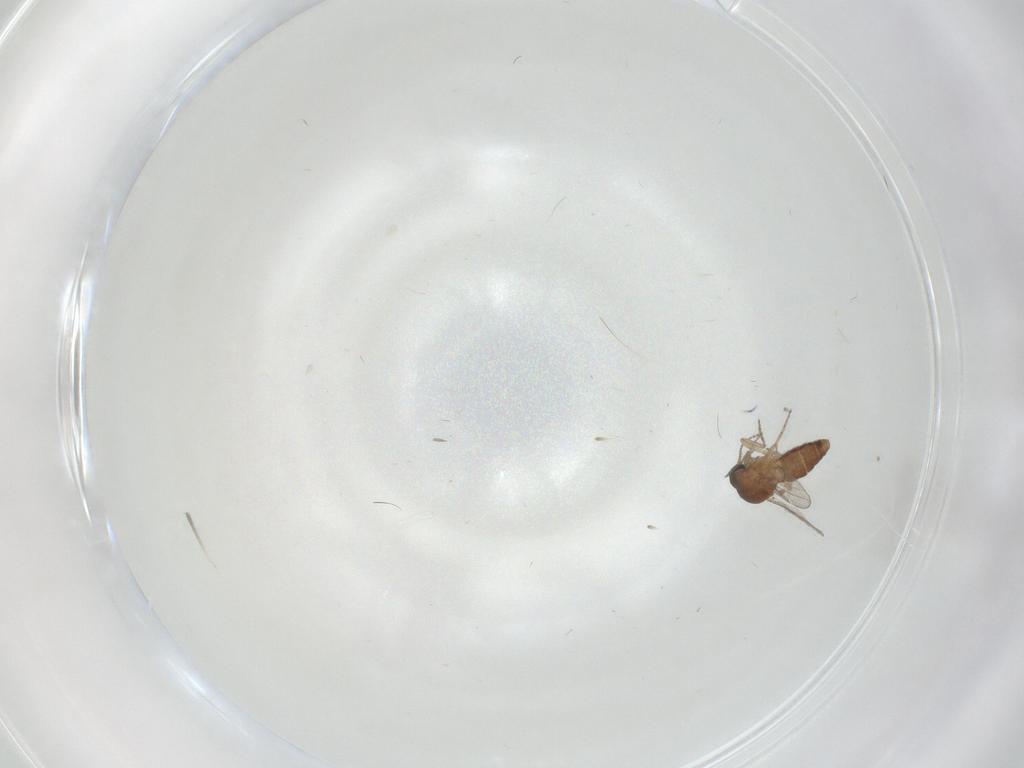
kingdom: Animalia
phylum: Arthropoda
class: Insecta
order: Diptera
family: Ceratopogonidae
